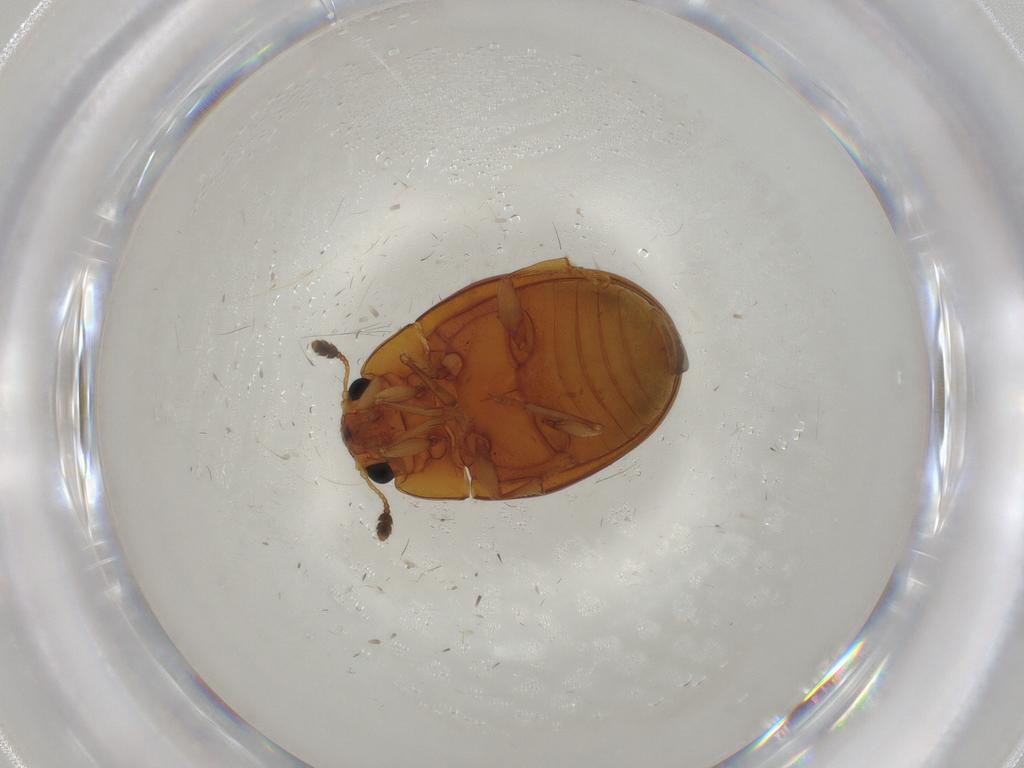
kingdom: Animalia
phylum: Arthropoda
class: Insecta
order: Coleoptera
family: Erotylidae
